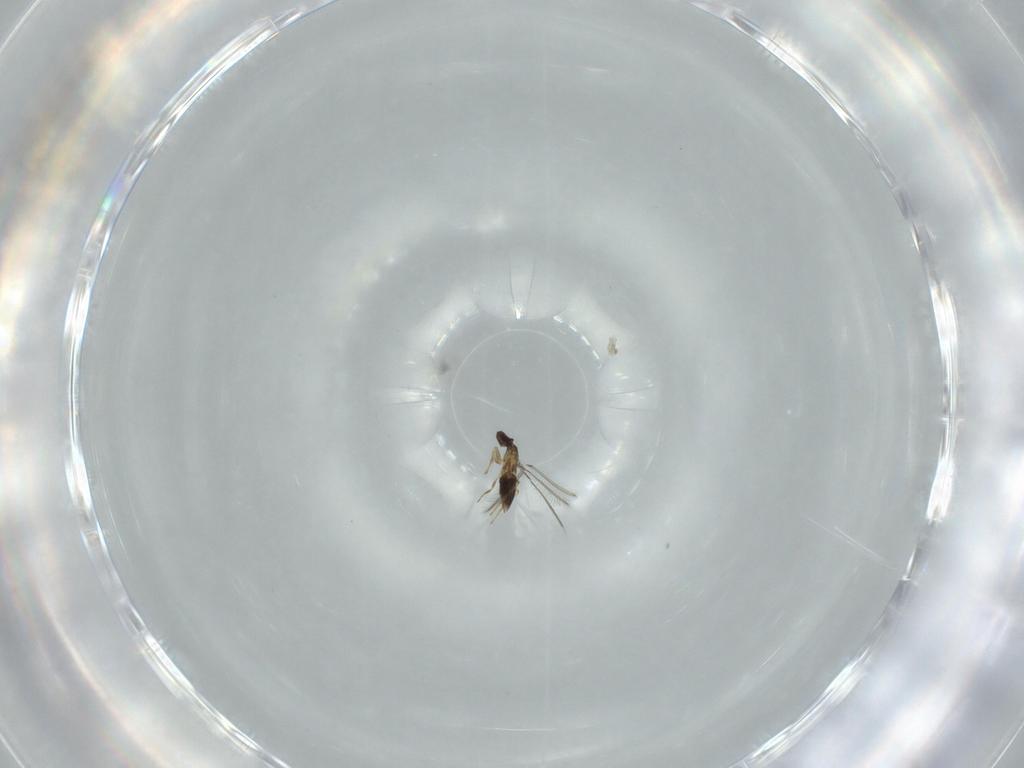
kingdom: Animalia
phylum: Arthropoda
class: Insecta
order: Hymenoptera
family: Mymaridae
